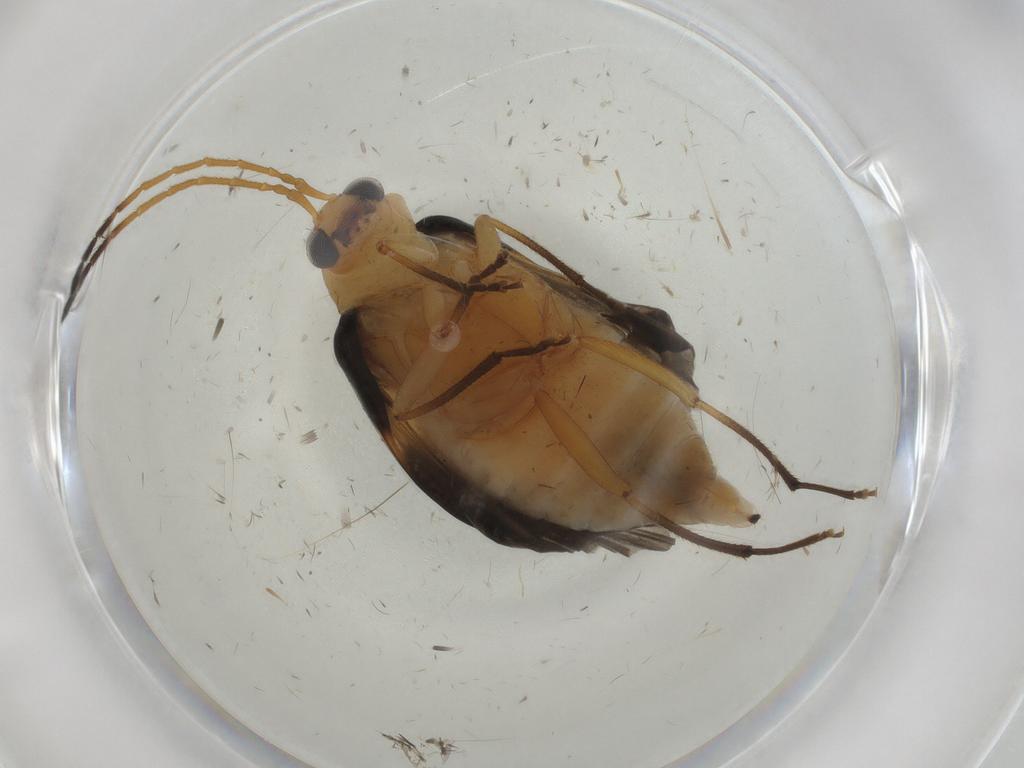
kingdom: Animalia
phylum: Arthropoda
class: Insecta
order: Coleoptera
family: Chrysomelidae
